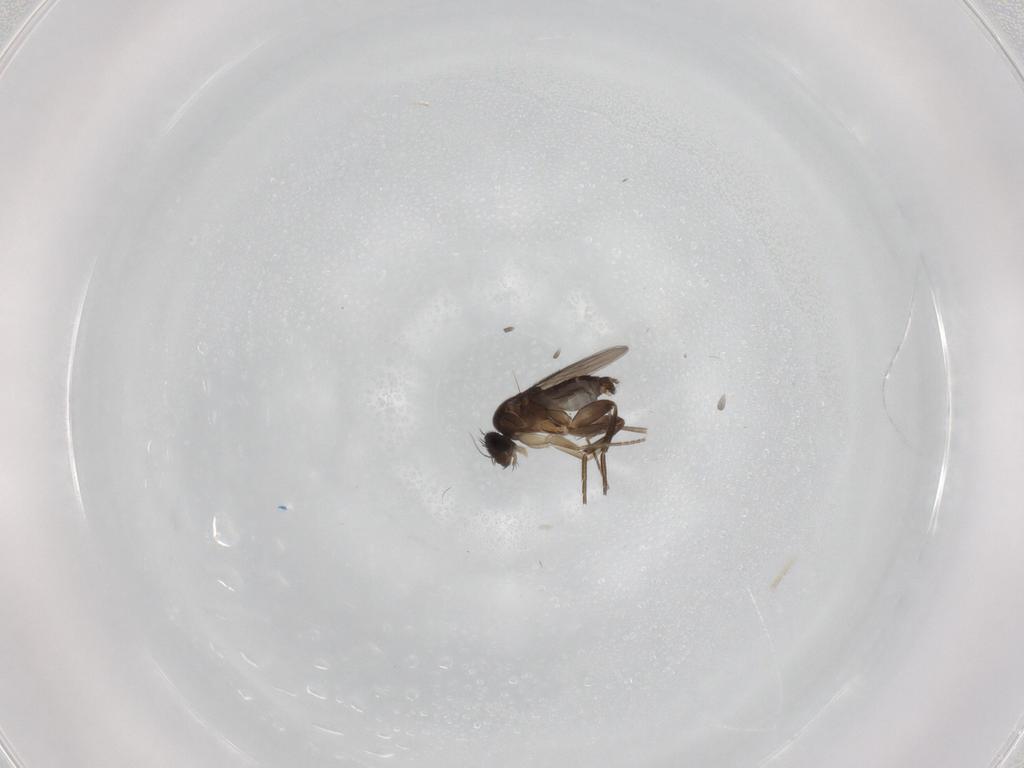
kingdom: Animalia
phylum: Arthropoda
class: Insecta
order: Diptera
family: Phoridae
